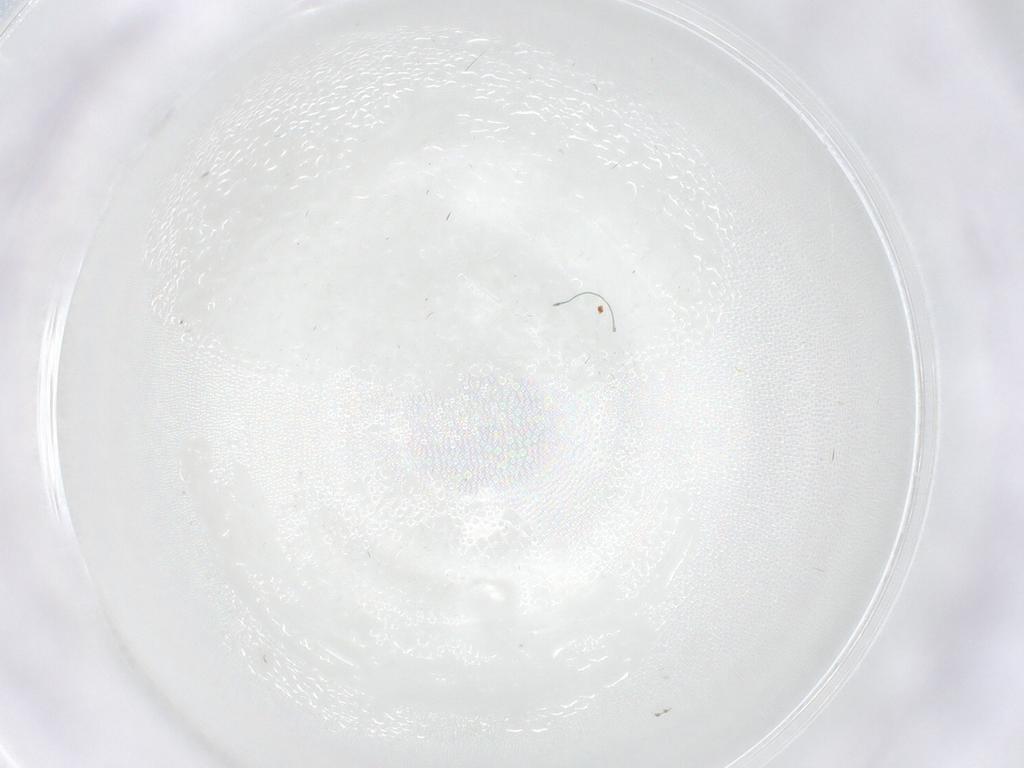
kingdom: Animalia
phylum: Arthropoda
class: Insecta
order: Diptera
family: Cecidomyiidae
